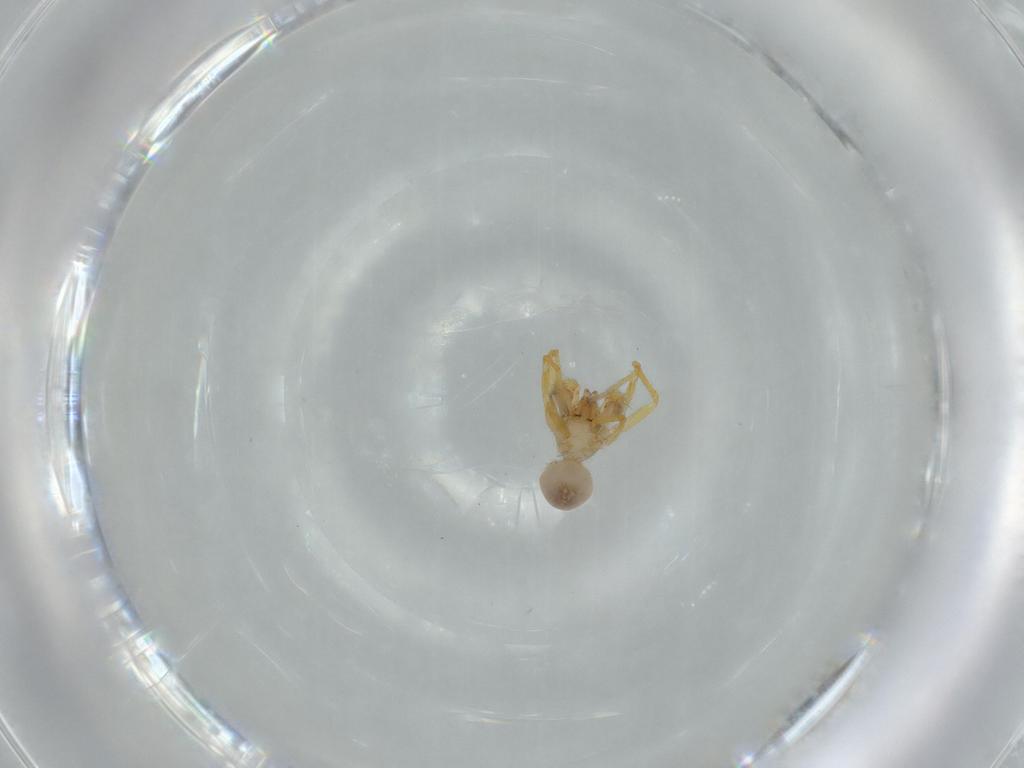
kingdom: Animalia
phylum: Arthropoda
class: Arachnida
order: Araneae
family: Oonopidae
